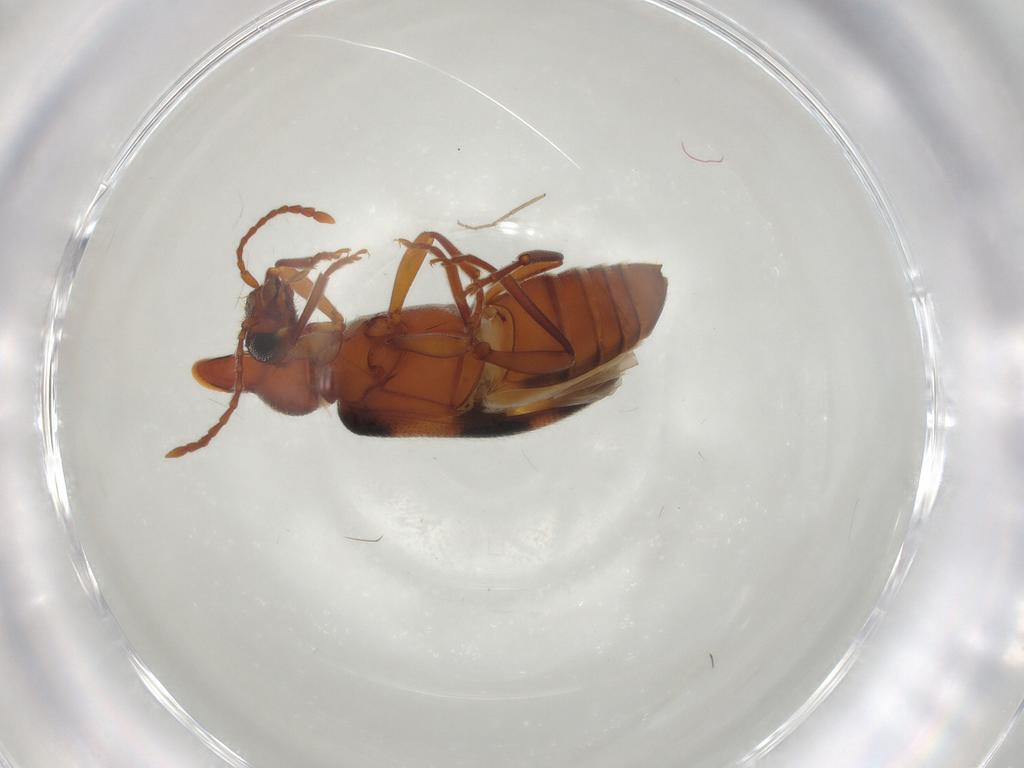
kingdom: Animalia
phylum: Arthropoda
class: Insecta
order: Coleoptera
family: Anthicidae
